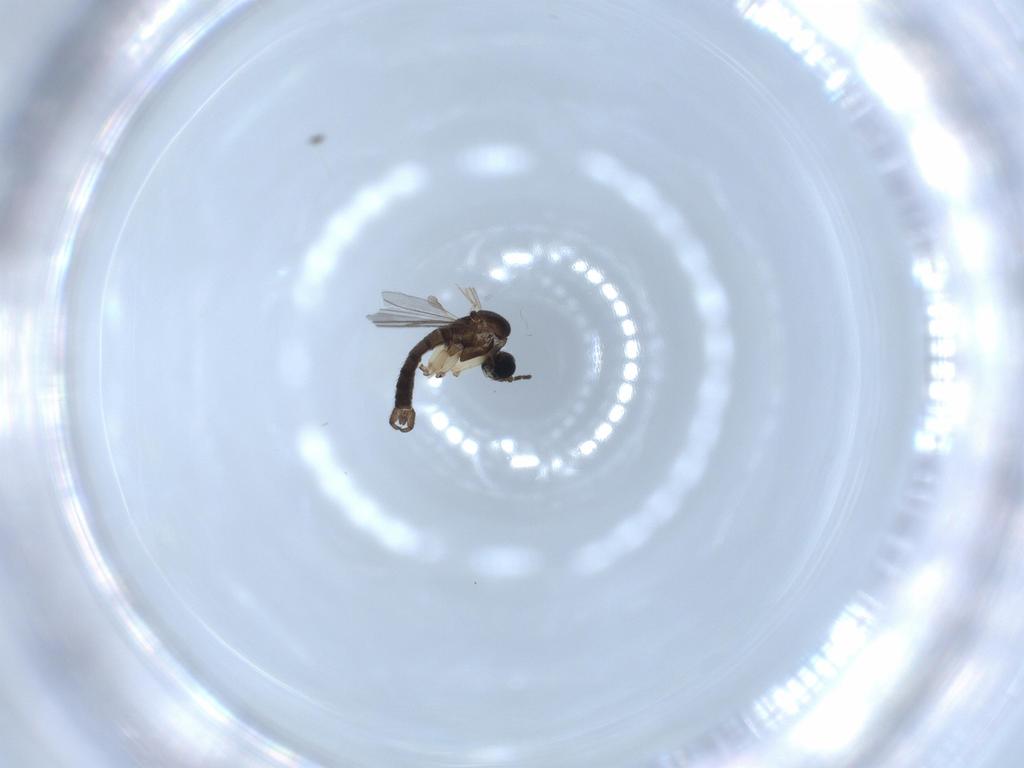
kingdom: Animalia
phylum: Arthropoda
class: Insecta
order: Diptera
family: Sciaridae
